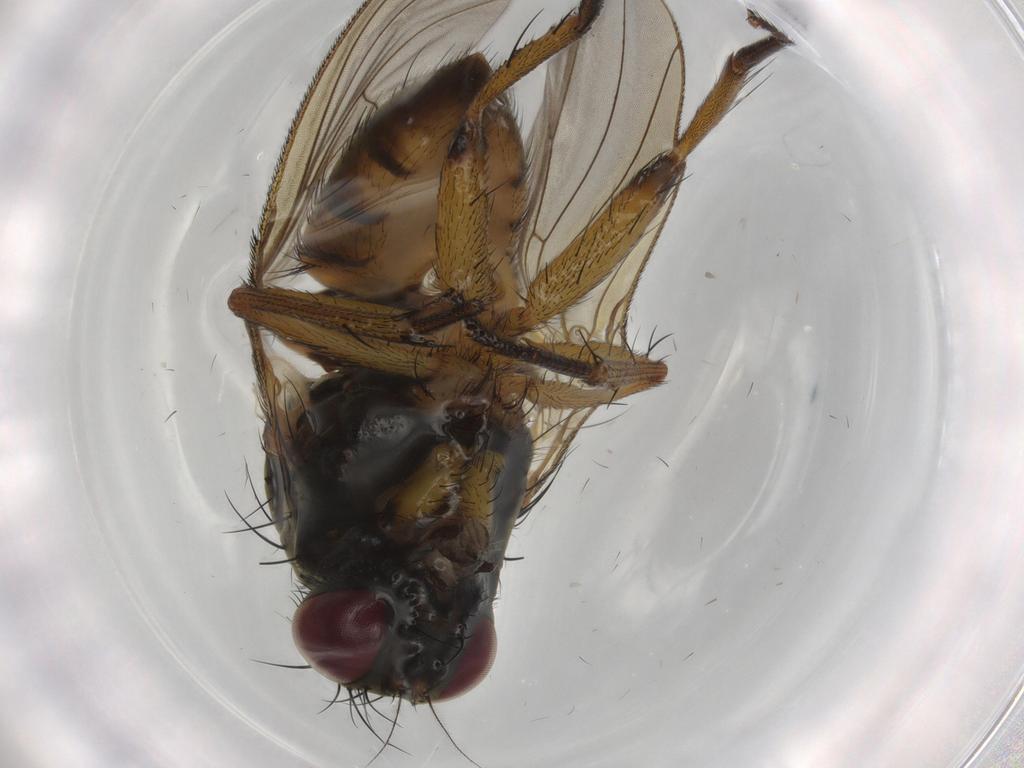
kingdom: Animalia
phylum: Arthropoda
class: Insecta
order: Diptera
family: Muscidae
